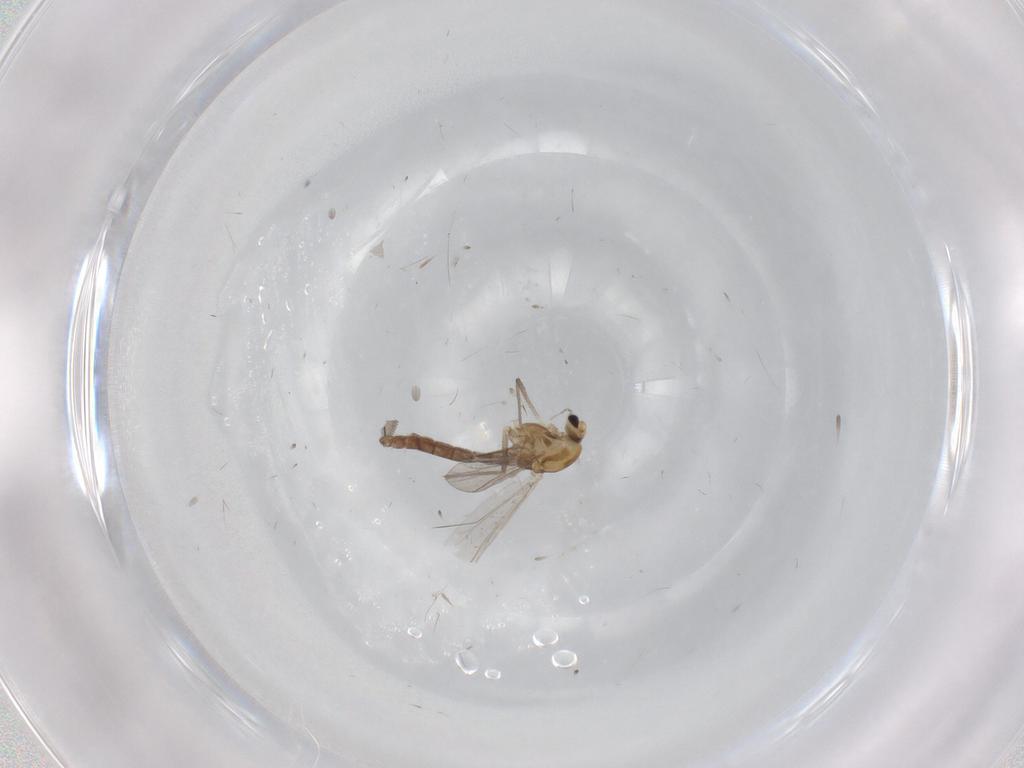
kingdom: Animalia
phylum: Arthropoda
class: Insecta
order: Diptera
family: Chironomidae
